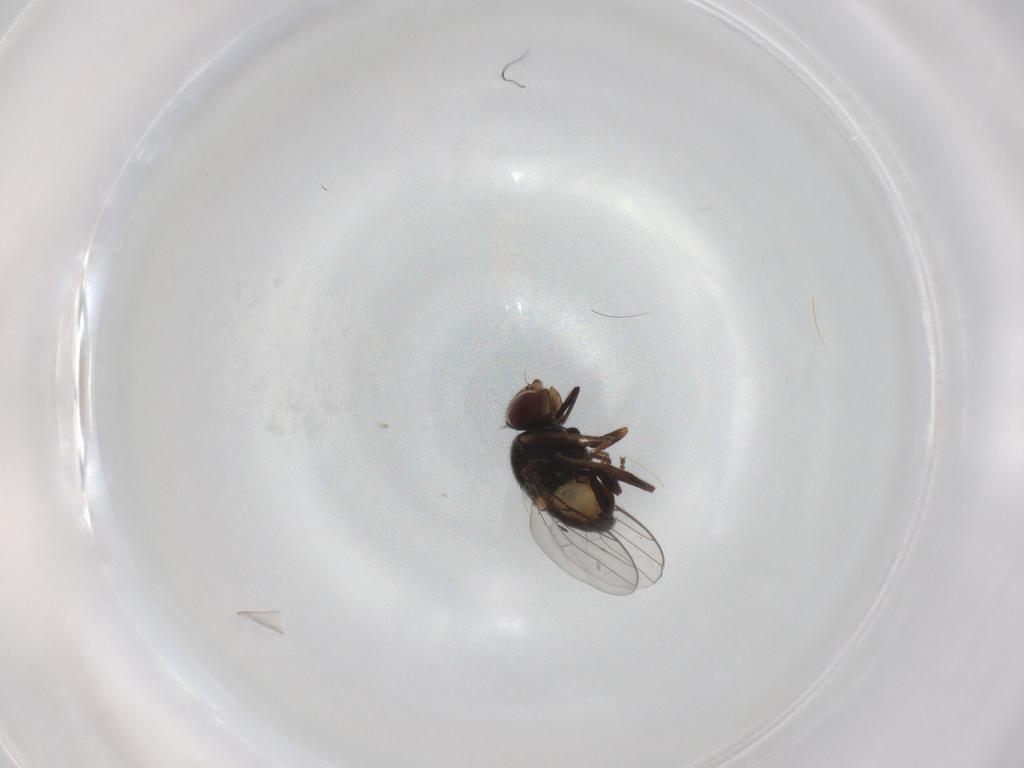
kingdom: Animalia
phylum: Arthropoda
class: Insecta
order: Diptera
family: Chloropidae
